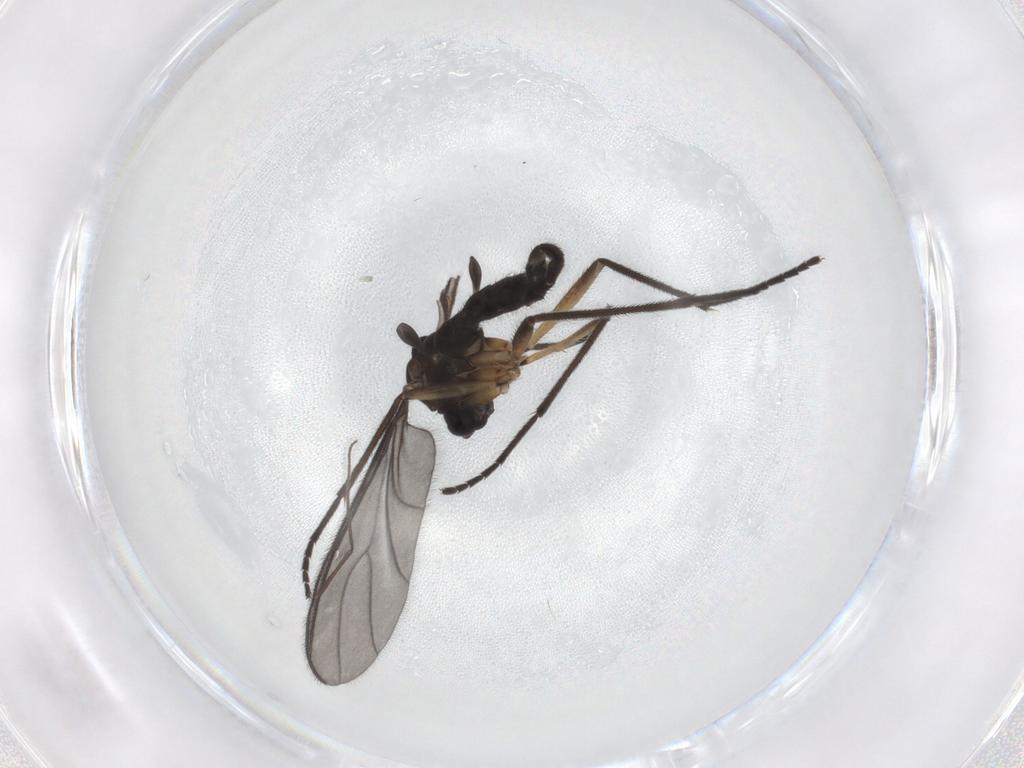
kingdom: Animalia
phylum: Arthropoda
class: Insecta
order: Diptera
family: Sciaridae
